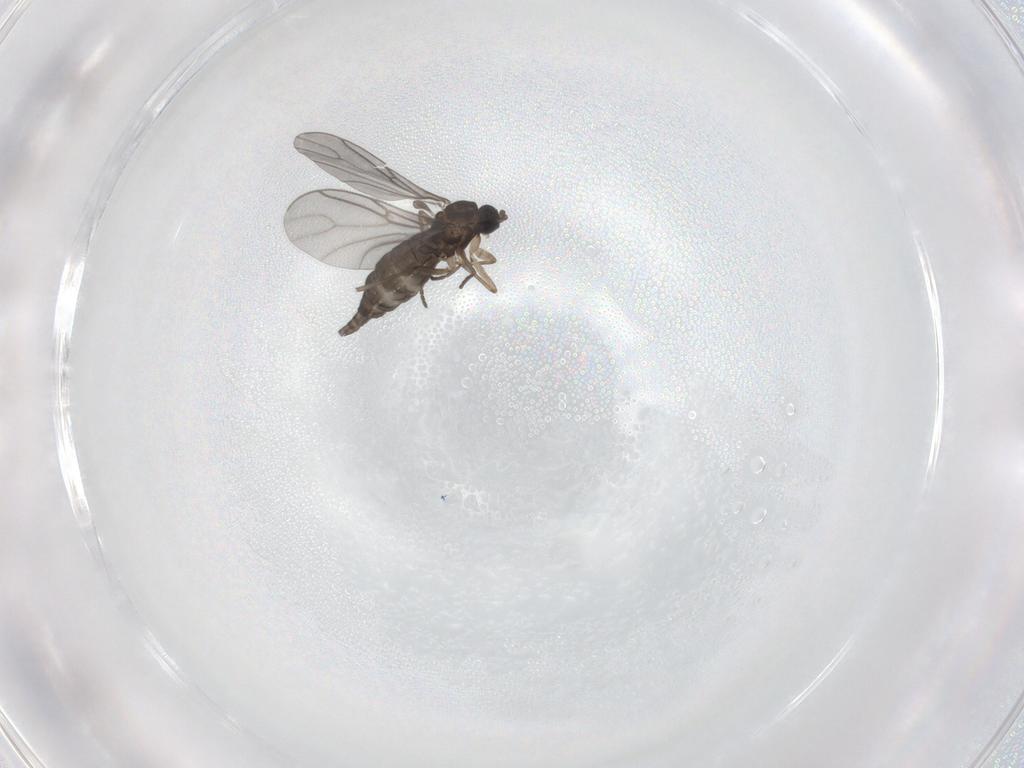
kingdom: Animalia
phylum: Arthropoda
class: Insecta
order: Diptera
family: Sciaridae
